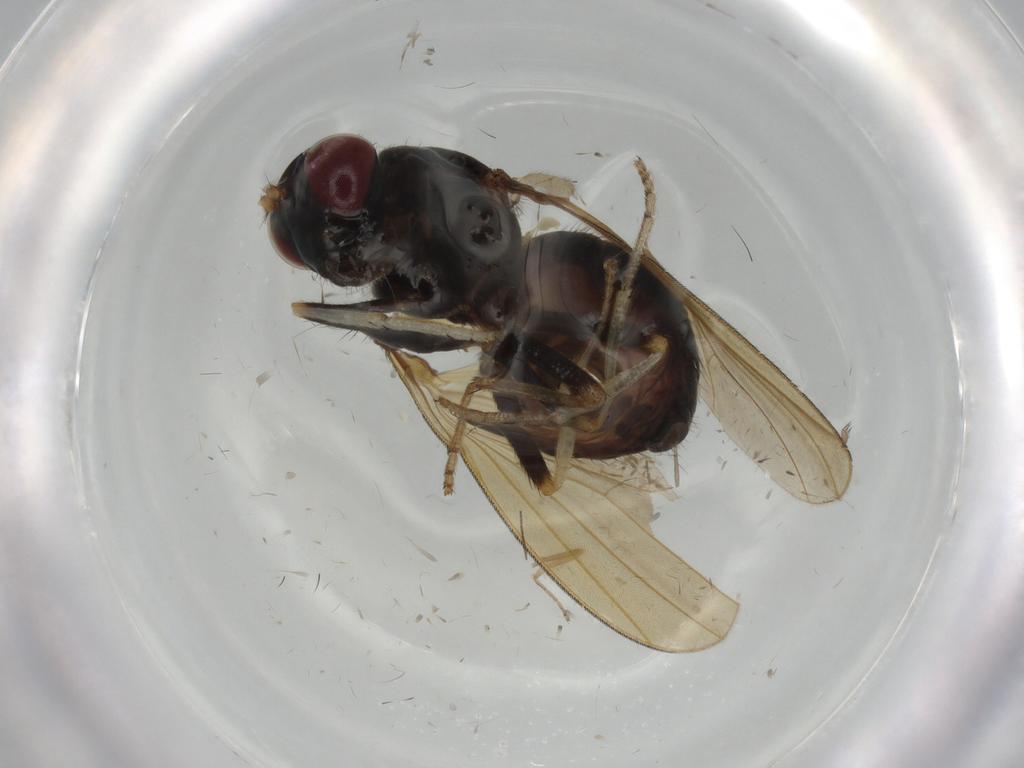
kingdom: Animalia
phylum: Arthropoda
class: Insecta
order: Diptera
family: Ceratopogonidae
